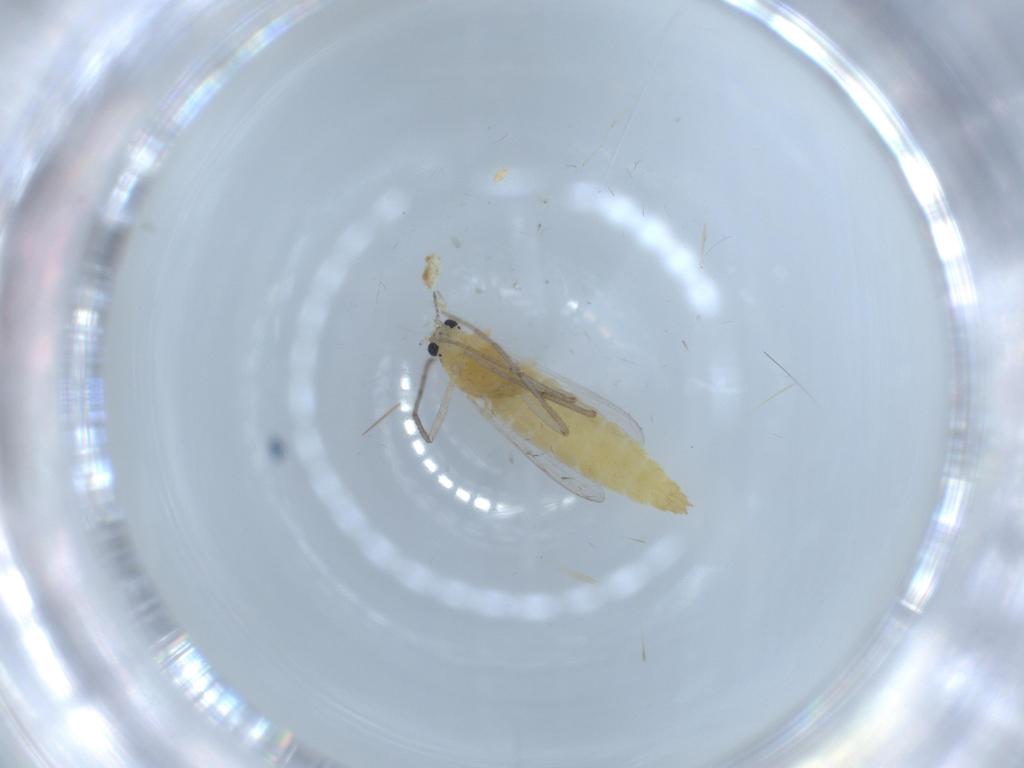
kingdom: Animalia
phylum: Arthropoda
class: Insecta
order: Diptera
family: Chironomidae
